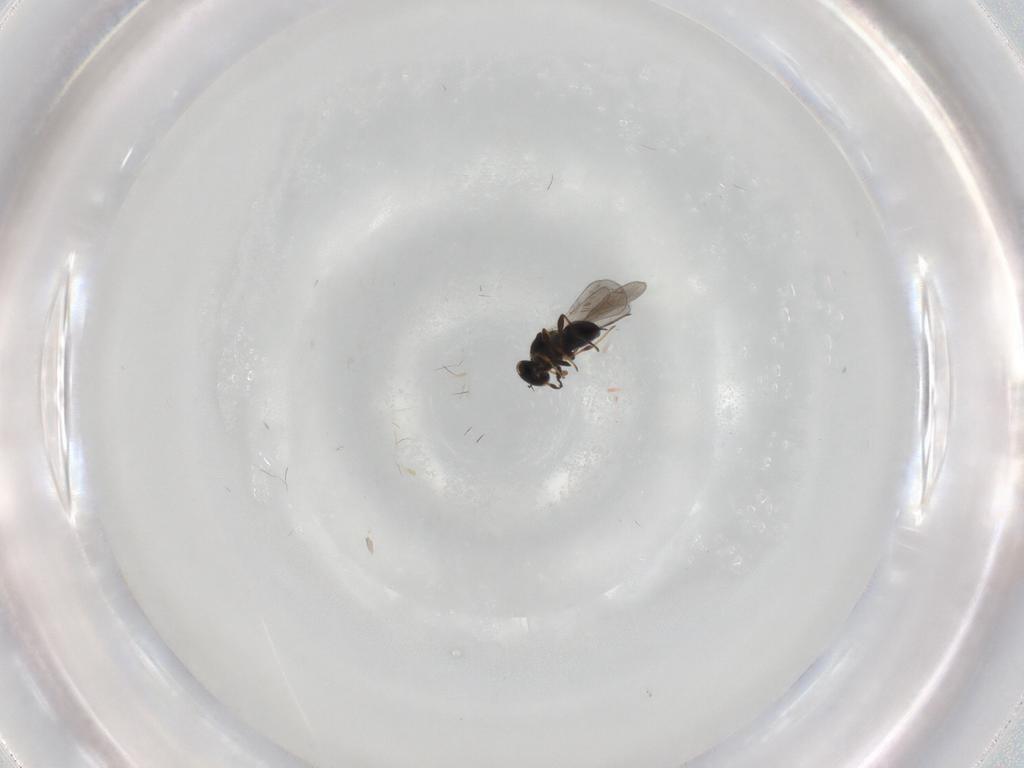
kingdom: Animalia
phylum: Arthropoda
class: Insecta
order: Hymenoptera
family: Platygastridae
